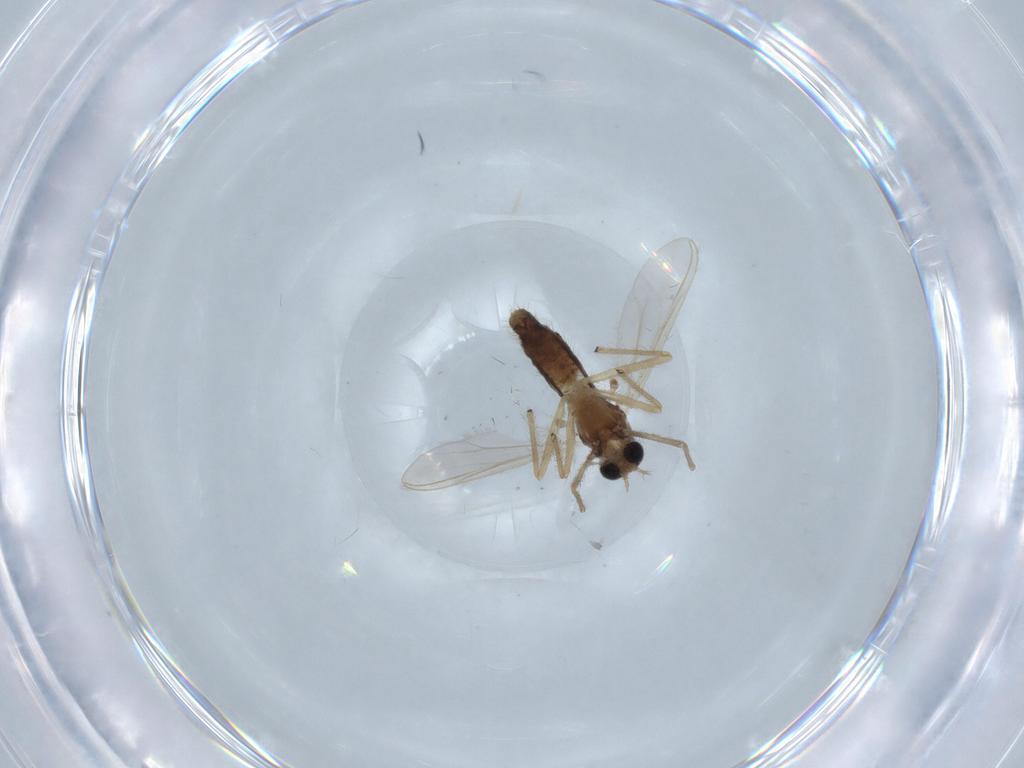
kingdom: Animalia
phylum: Arthropoda
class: Insecta
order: Diptera
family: Chironomidae
